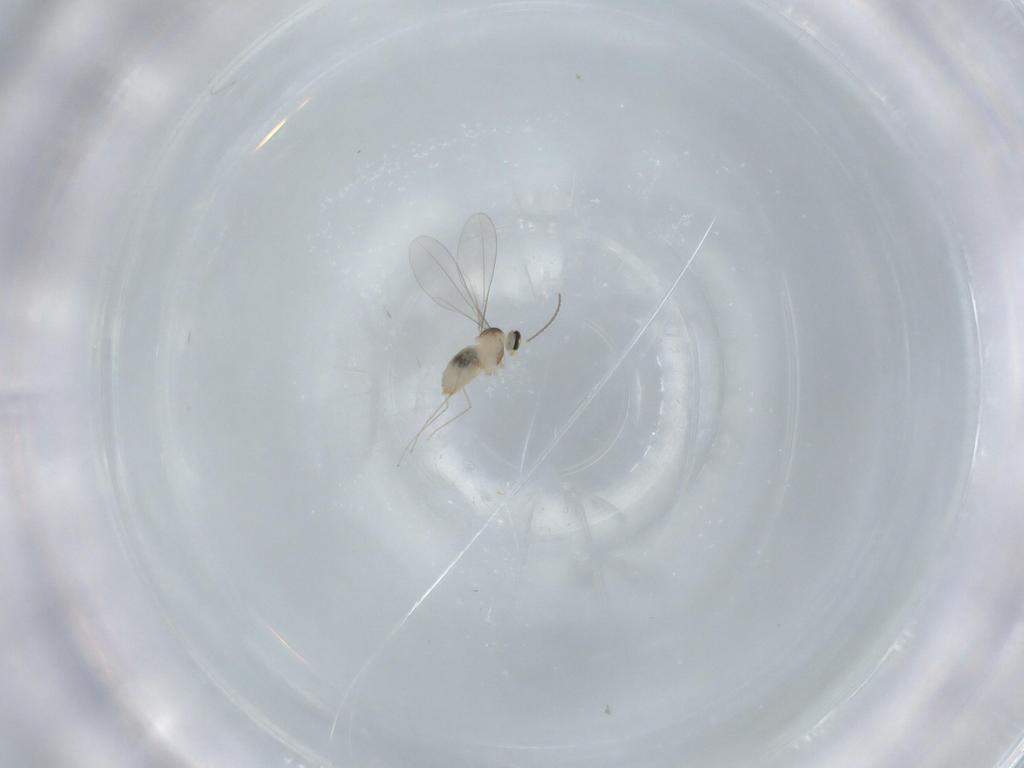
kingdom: Animalia
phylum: Arthropoda
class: Insecta
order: Diptera
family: Cecidomyiidae
